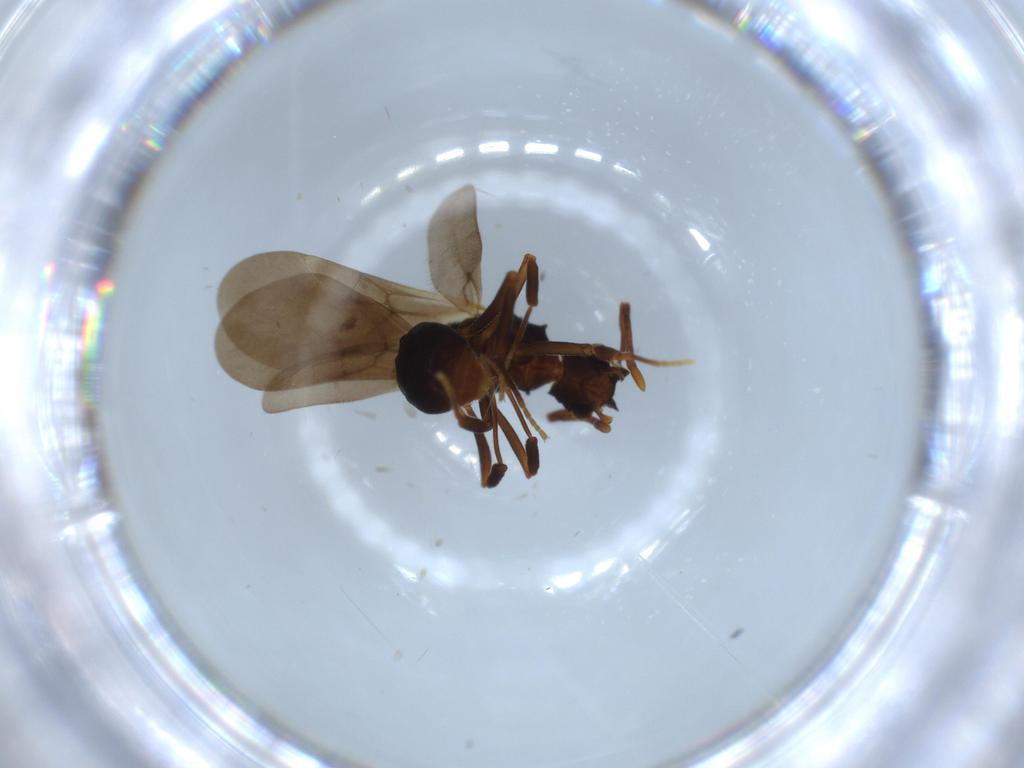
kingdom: Animalia
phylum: Arthropoda
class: Insecta
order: Hymenoptera
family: Formicidae
